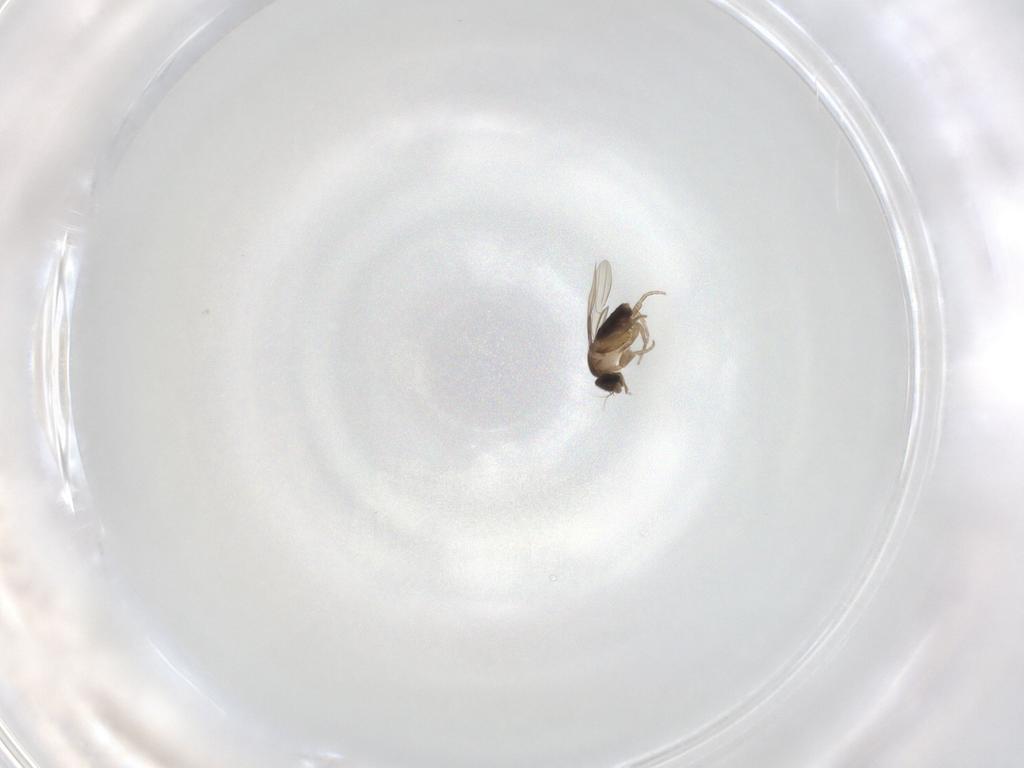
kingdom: Animalia
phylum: Arthropoda
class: Insecta
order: Diptera
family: Phoridae
